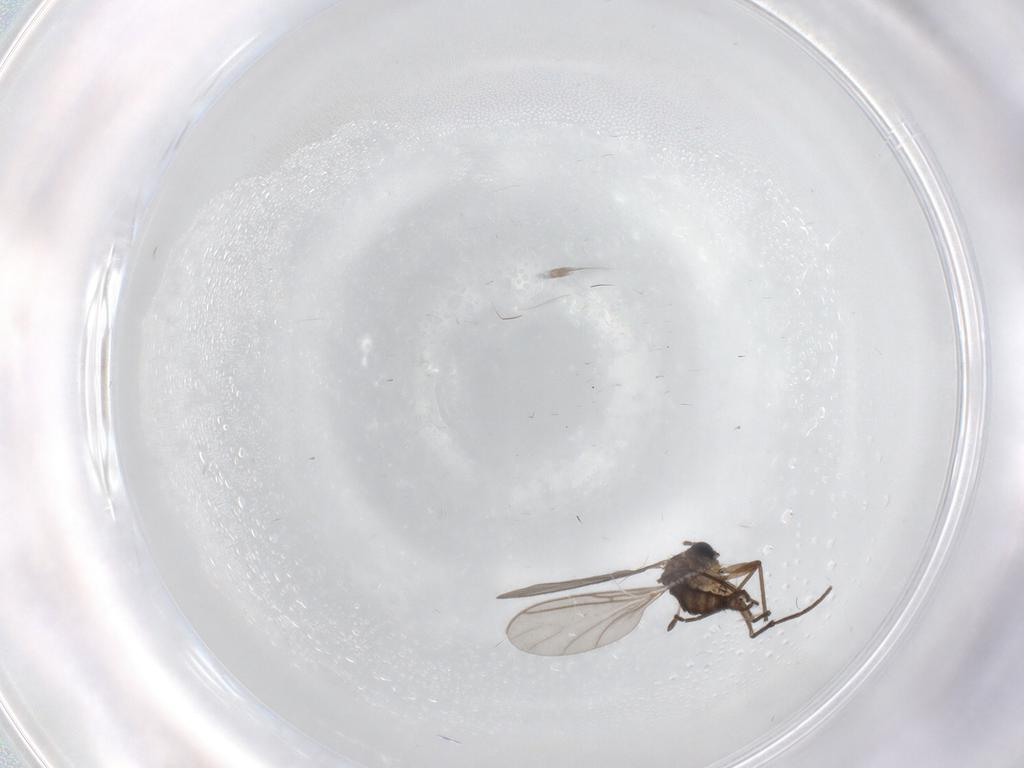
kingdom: Animalia
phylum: Arthropoda
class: Insecta
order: Diptera
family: Sciaridae
